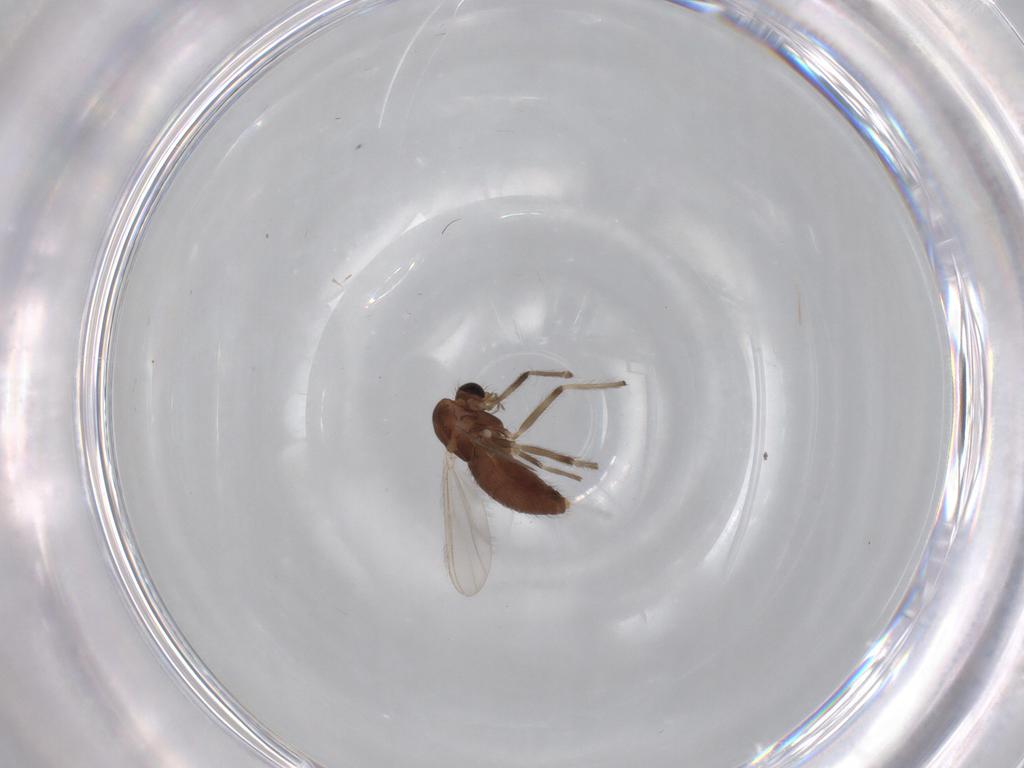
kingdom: Animalia
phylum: Arthropoda
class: Insecta
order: Diptera
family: Chironomidae
